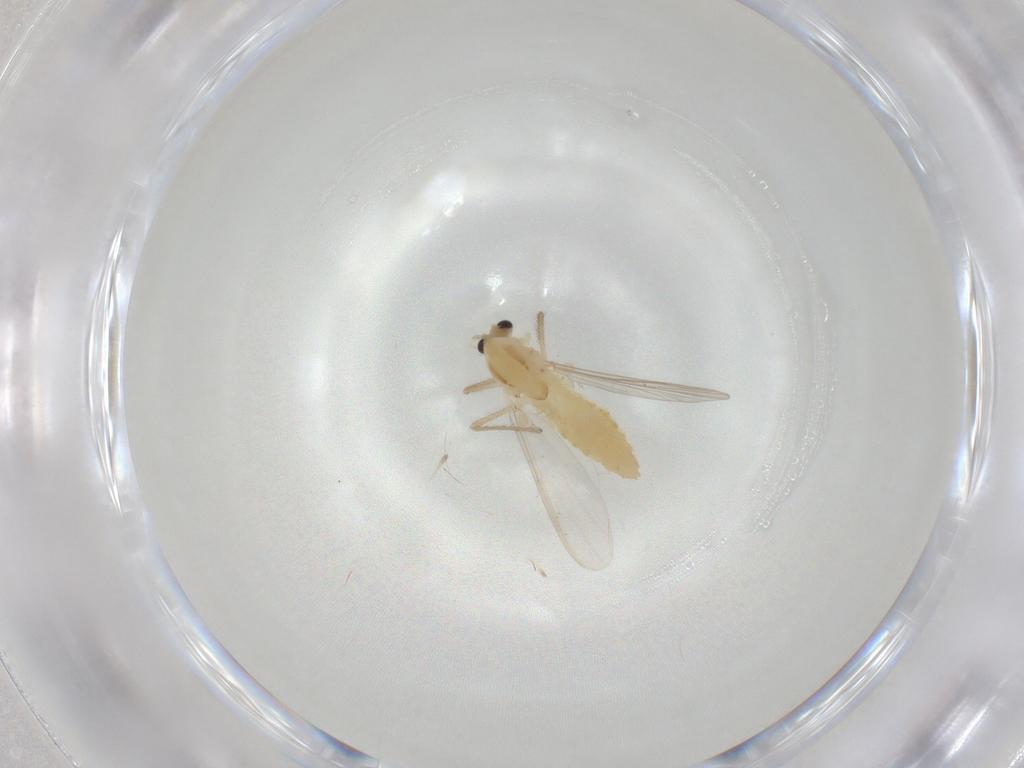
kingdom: Animalia
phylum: Arthropoda
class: Insecta
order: Diptera
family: Chironomidae
